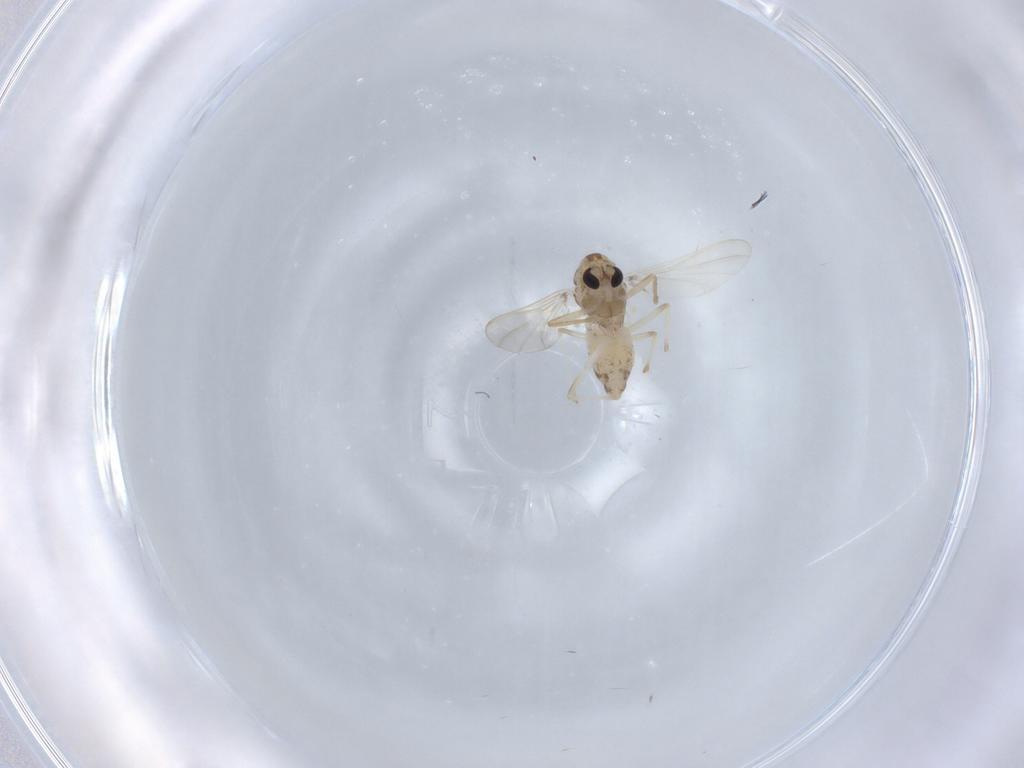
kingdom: Animalia
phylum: Arthropoda
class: Insecta
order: Diptera
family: Chironomidae
